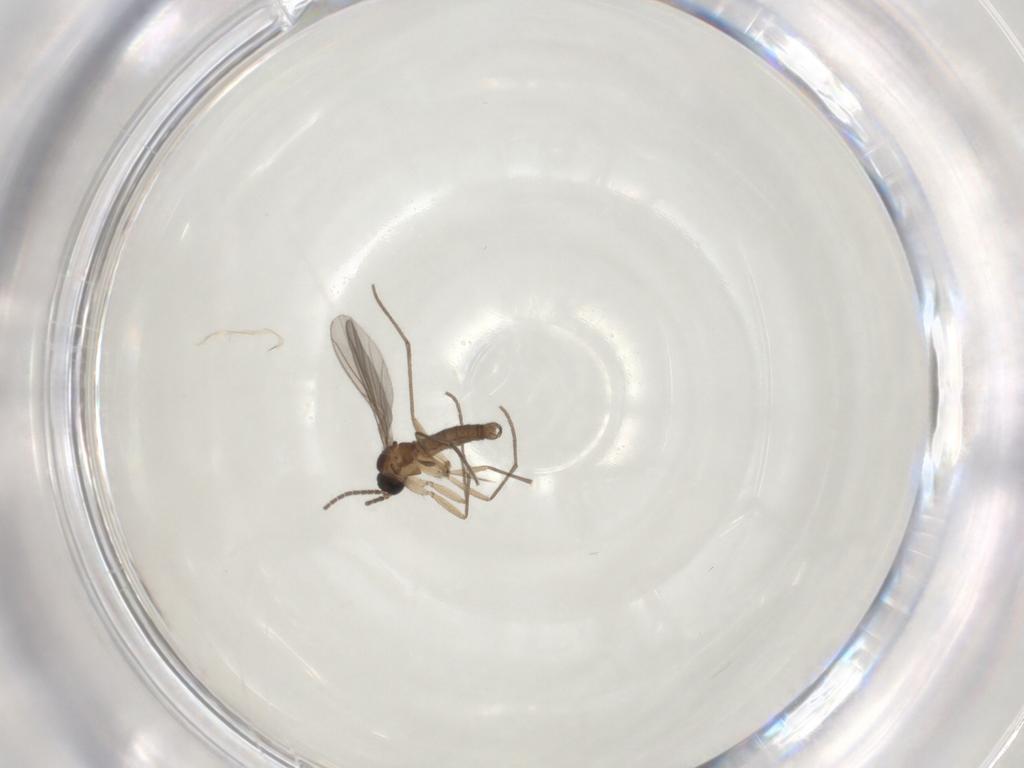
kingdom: Animalia
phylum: Arthropoda
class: Insecta
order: Diptera
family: Sciaridae
